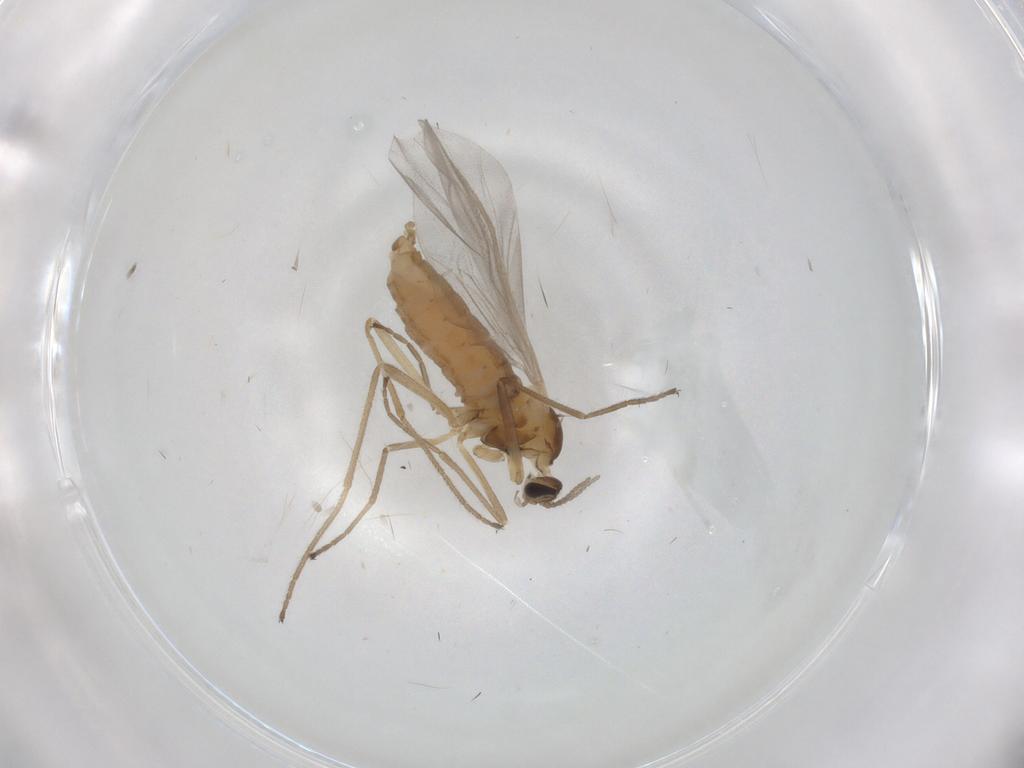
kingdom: Animalia
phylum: Arthropoda
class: Insecta
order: Diptera
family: Cecidomyiidae
